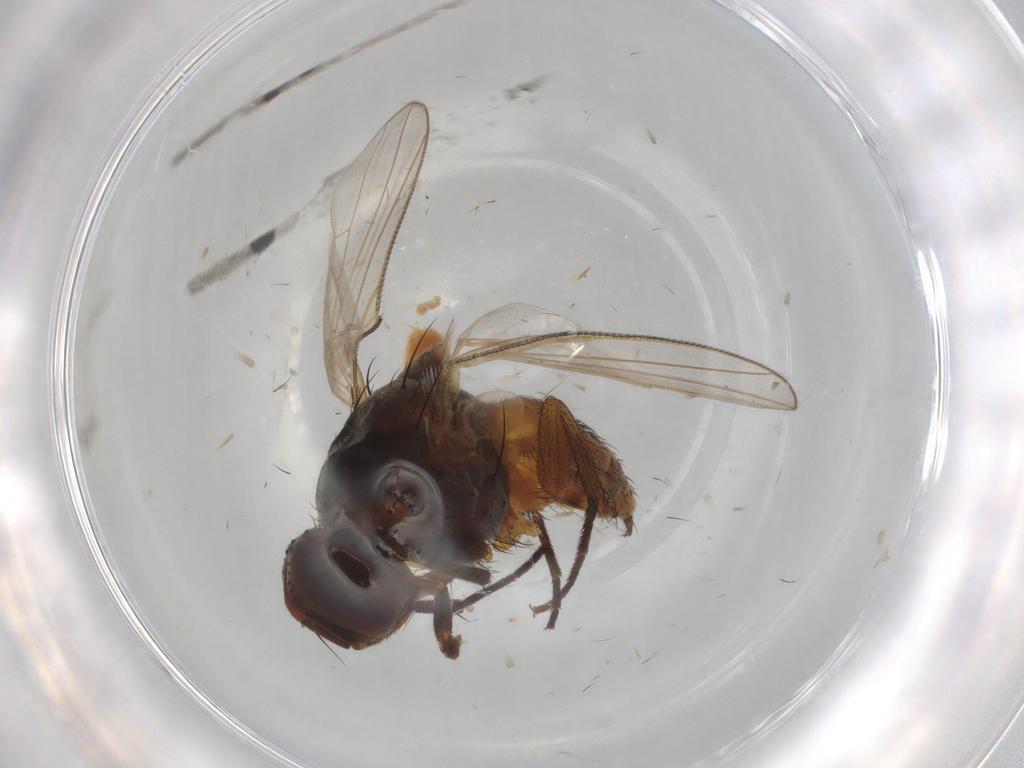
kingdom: Animalia
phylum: Arthropoda
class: Insecta
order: Diptera
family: Muscidae
